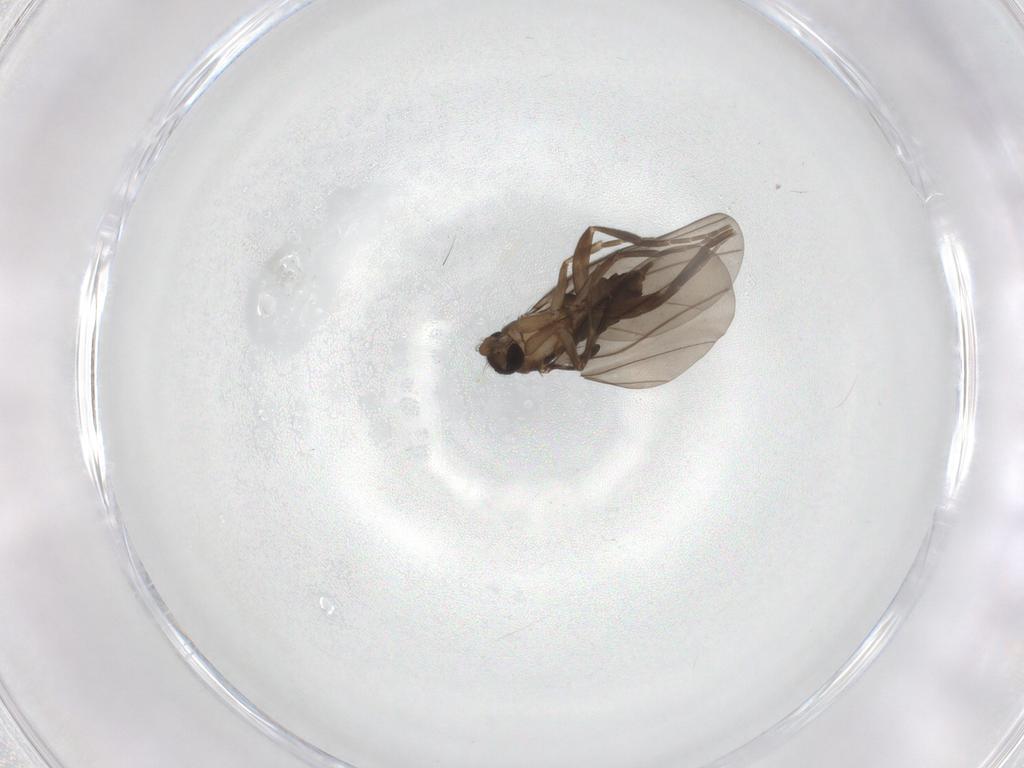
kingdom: Animalia
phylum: Arthropoda
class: Insecta
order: Diptera
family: Phoridae
